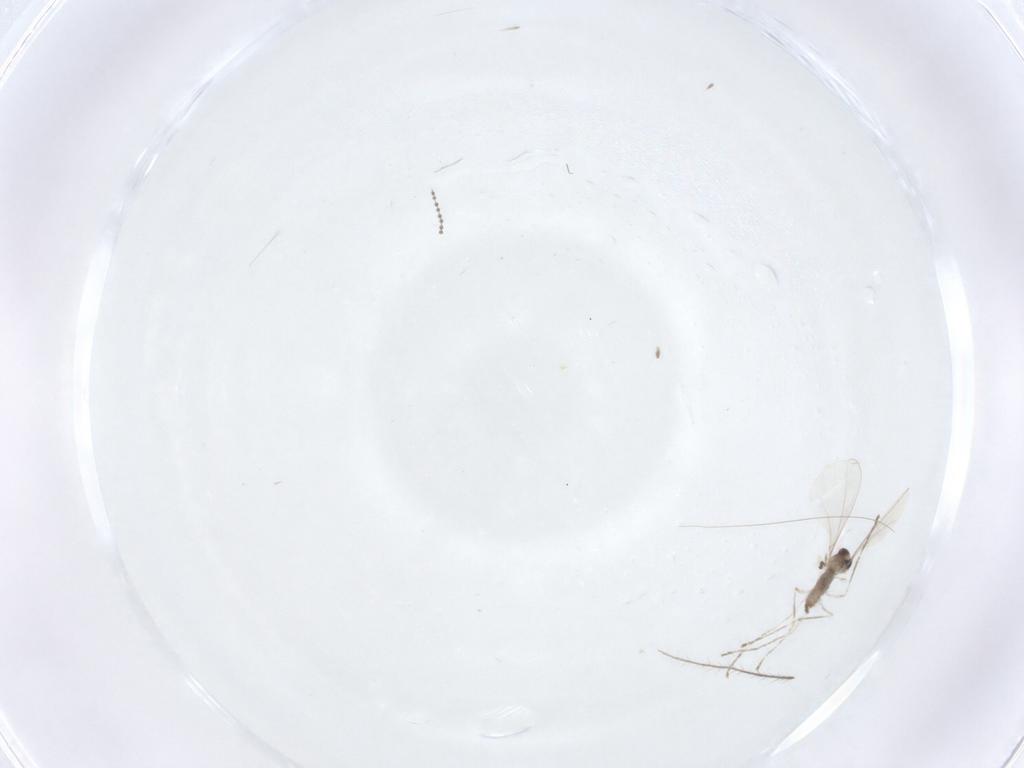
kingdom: Animalia
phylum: Arthropoda
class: Insecta
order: Diptera
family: Cecidomyiidae
